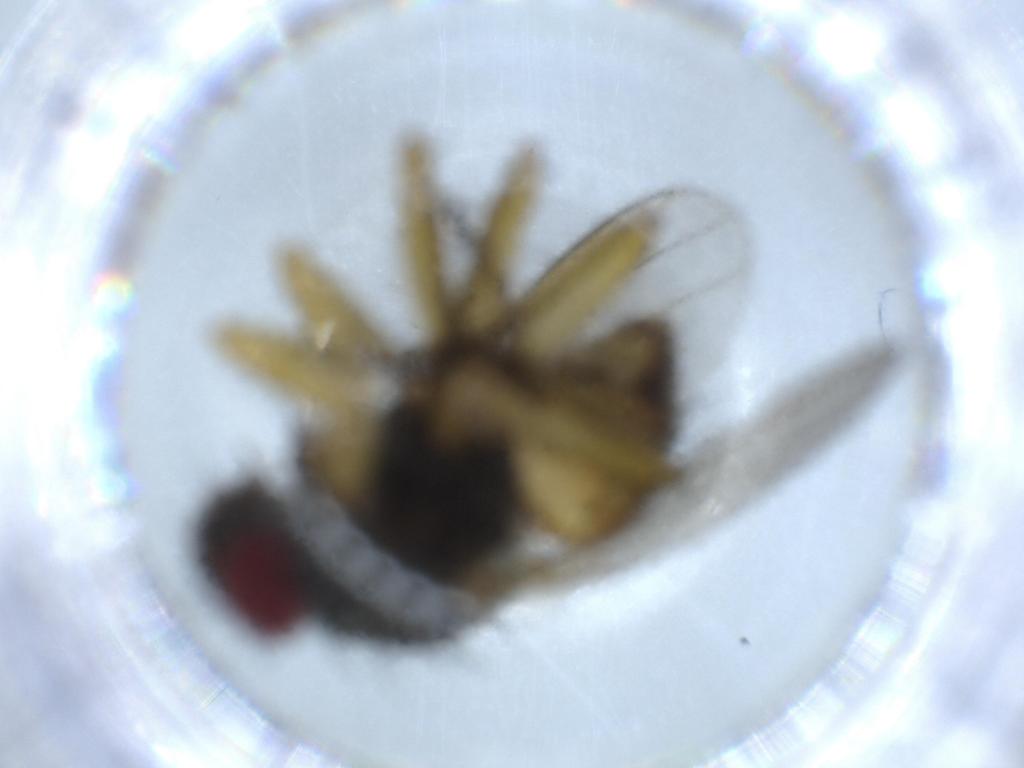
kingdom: Animalia
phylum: Arthropoda
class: Insecta
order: Diptera
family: Muscidae
